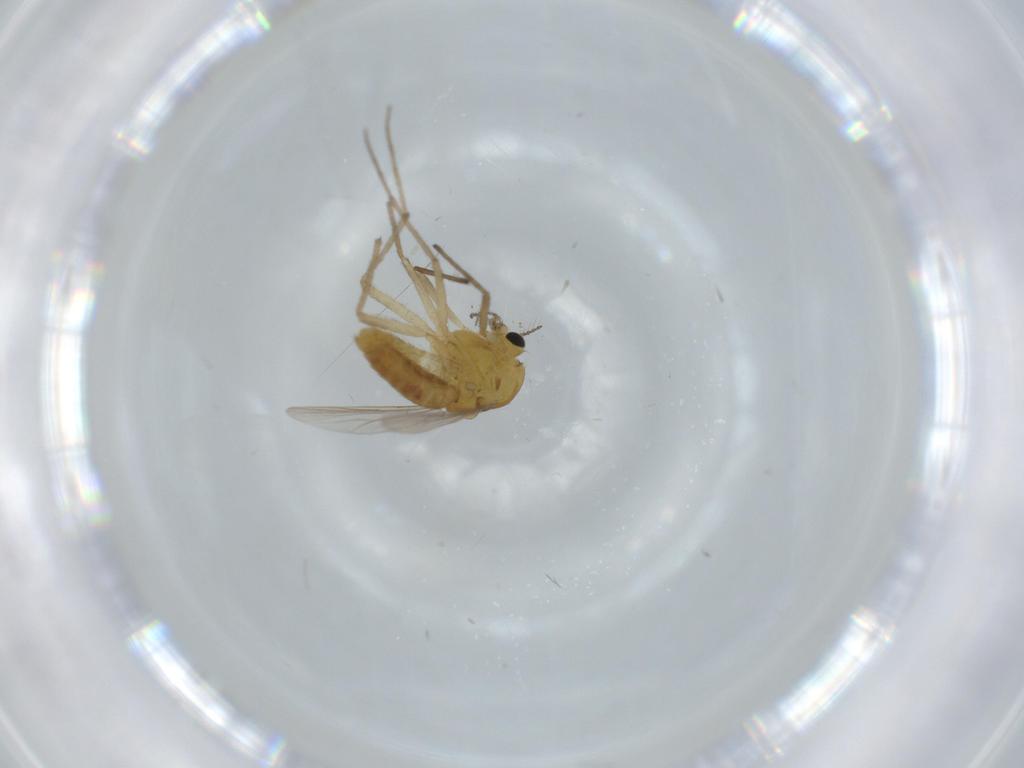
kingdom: Animalia
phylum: Arthropoda
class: Insecta
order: Diptera
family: Chironomidae
